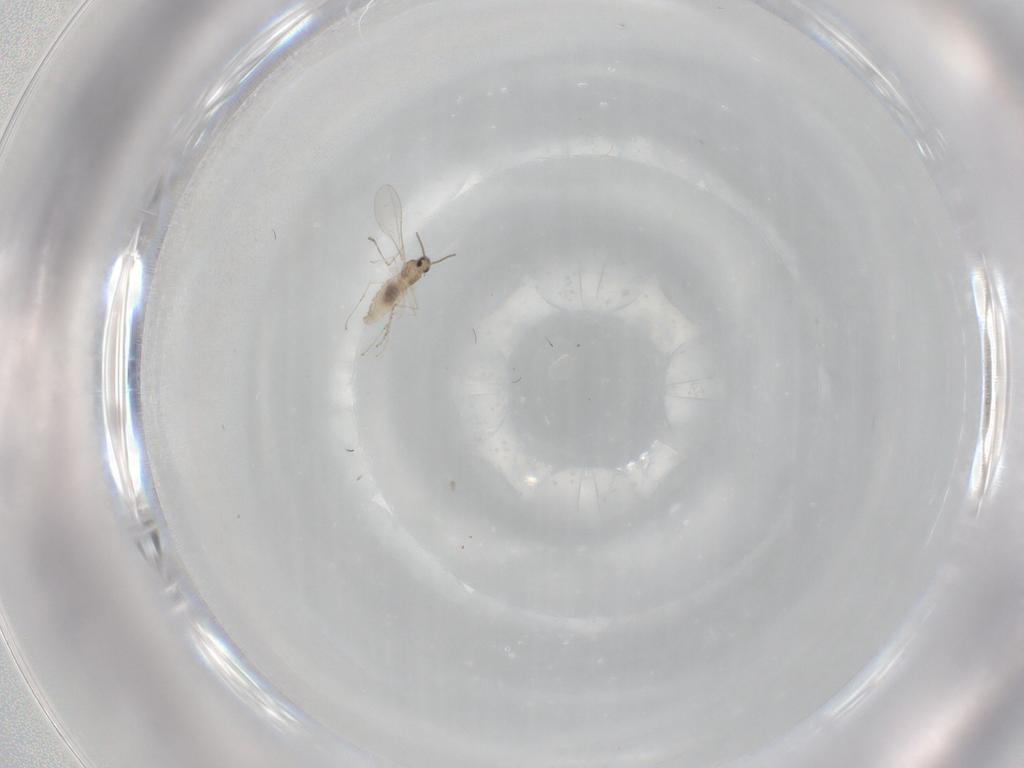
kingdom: Animalia
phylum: Arthropoda
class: Insecta
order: Diptera
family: Cecidomyiidae
